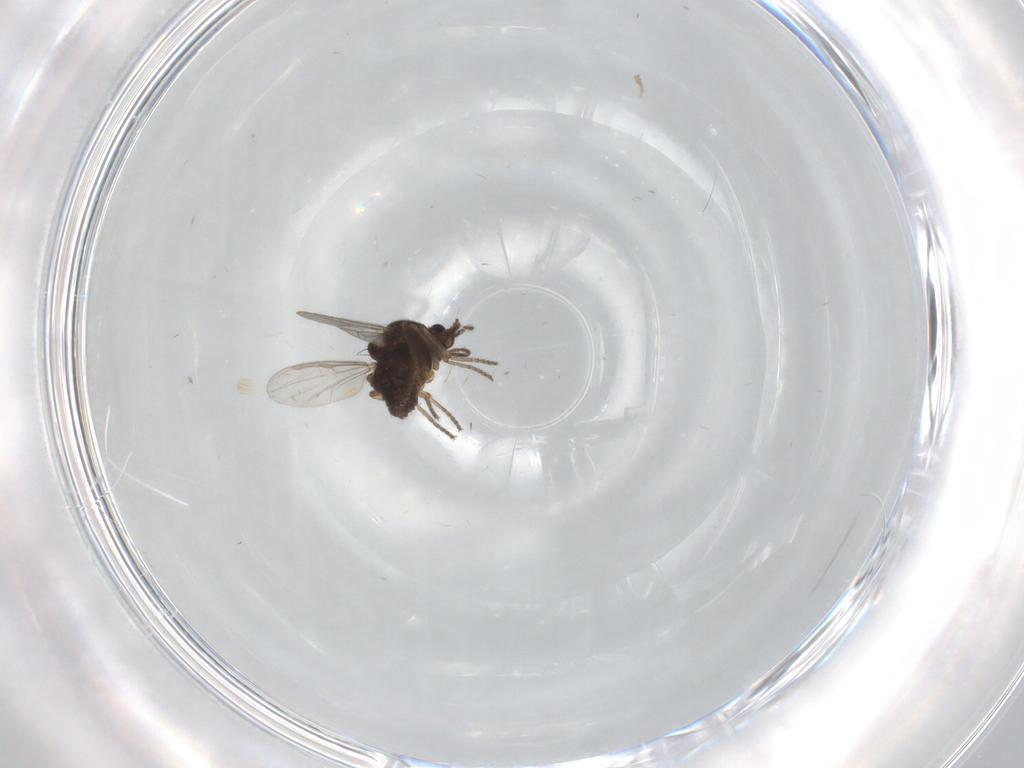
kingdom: Animalia
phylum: Arthropoda
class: Insecta
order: Diptera
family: Ceratopogonidae
